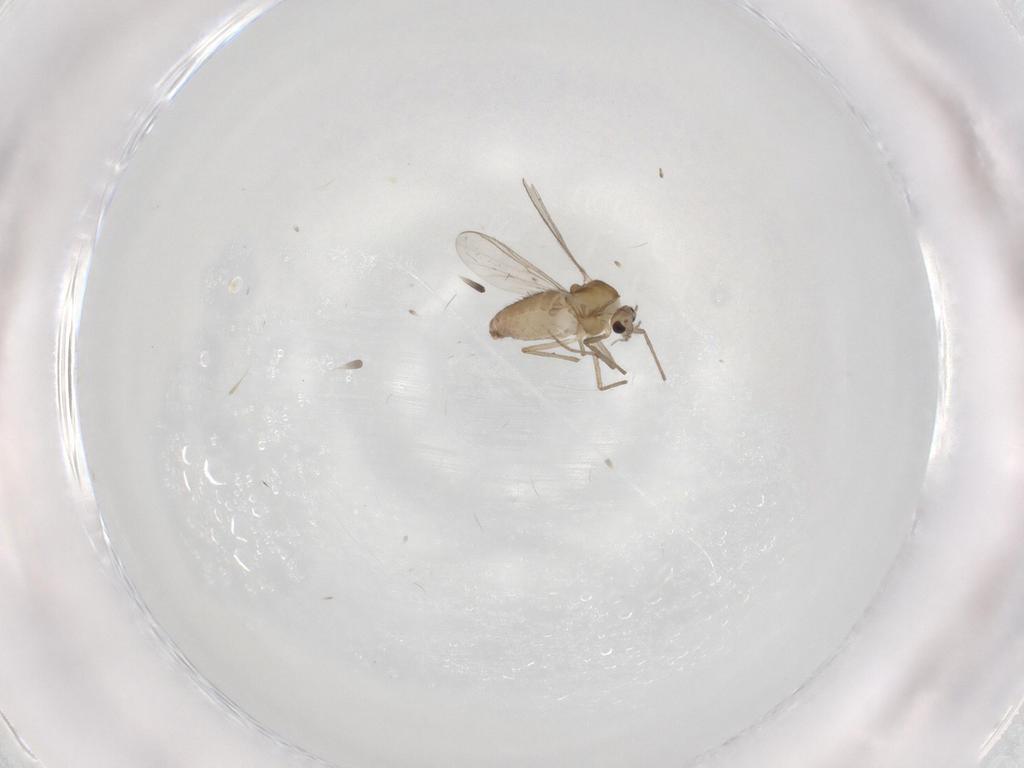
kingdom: Animalia
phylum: Arthropoda
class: Insecta
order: Diptera
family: Chironomidae
